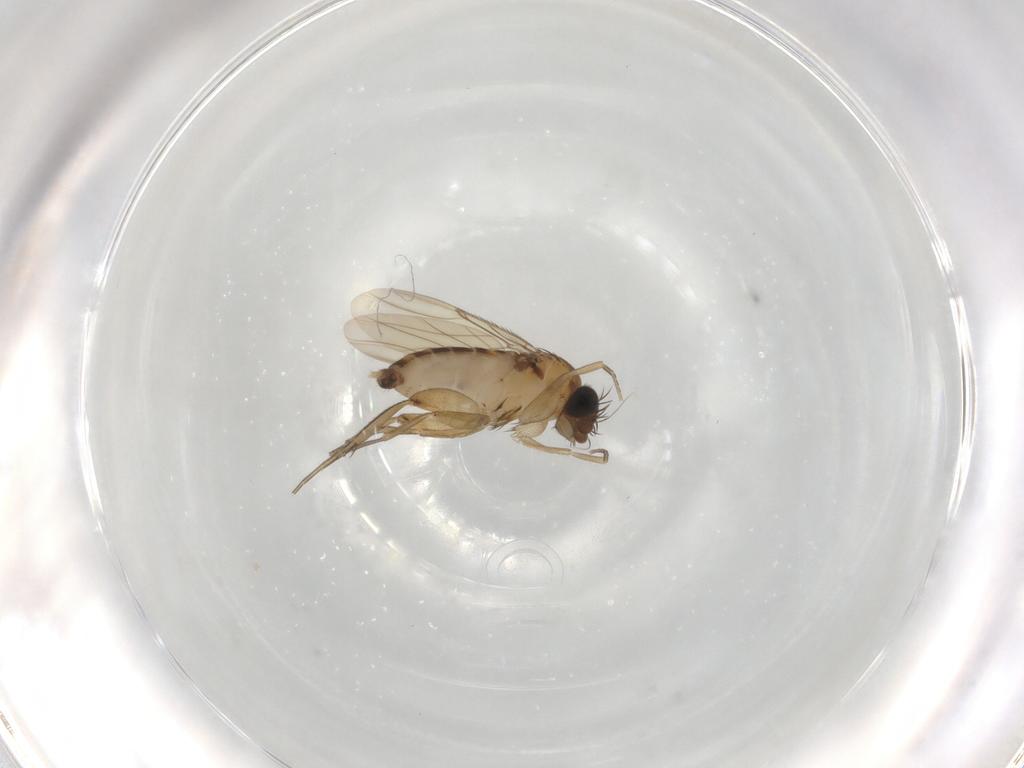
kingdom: Animalia
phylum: Arthropoda
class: Insecta
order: Diptera
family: Phoridae
